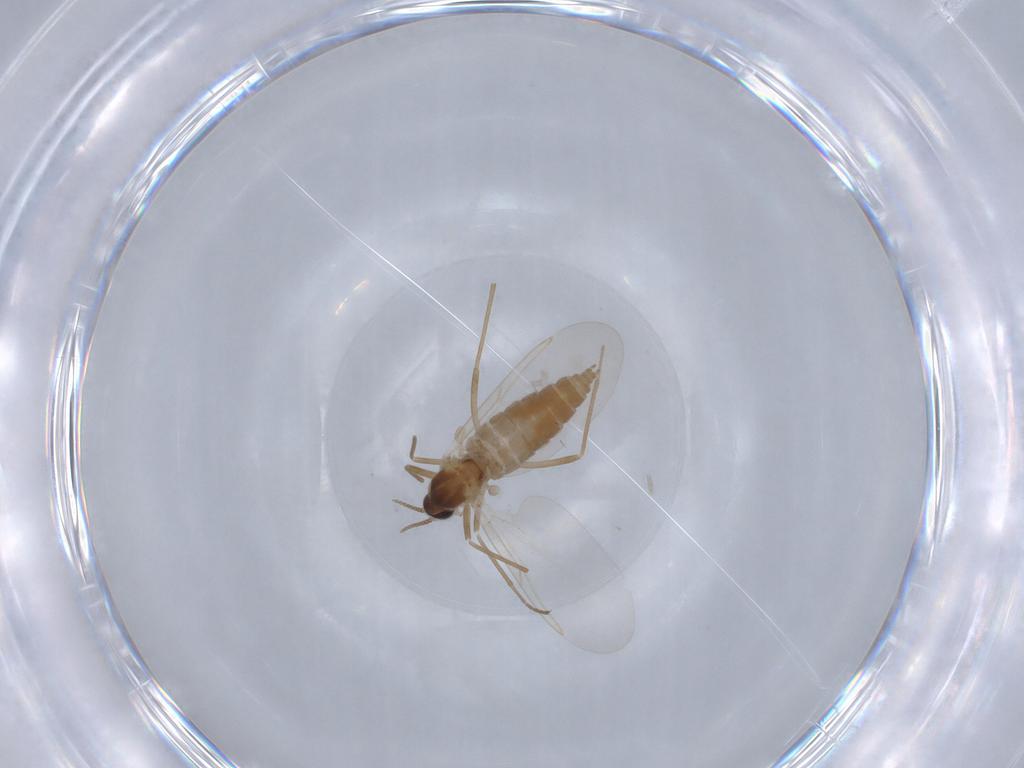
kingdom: Animalia
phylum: Arthropoda
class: Insecta
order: Diptera
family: Cecidomyiidae
